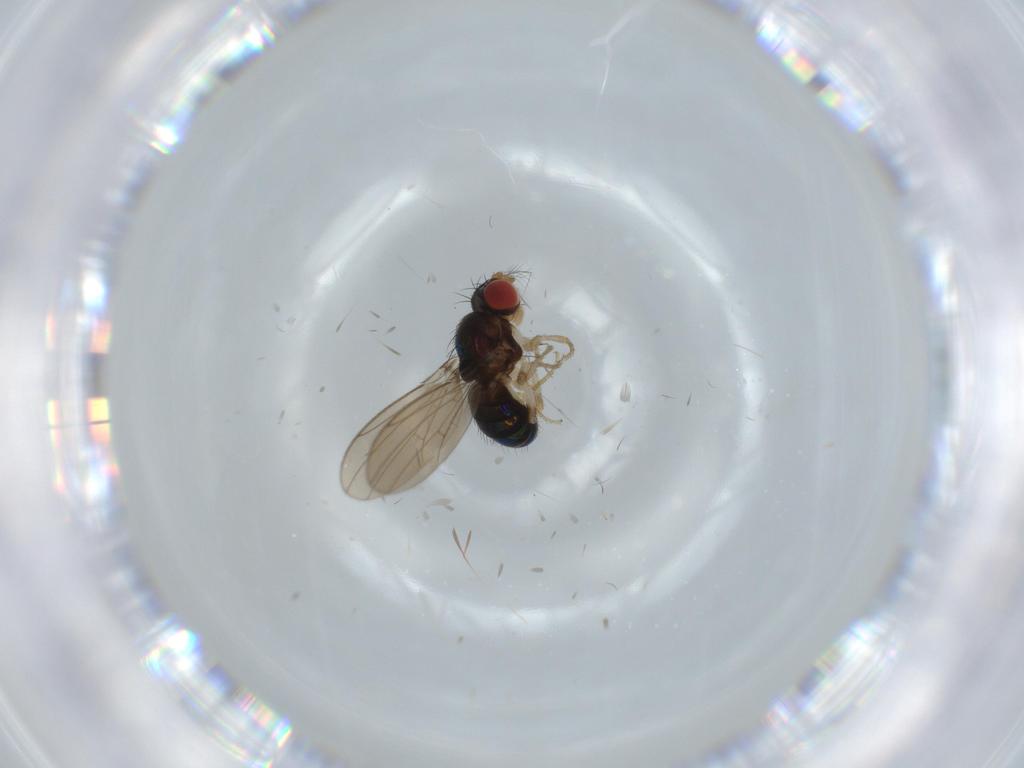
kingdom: Animalia
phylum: Arthropoda
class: Insecta
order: Diptera
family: Drosophilidae
